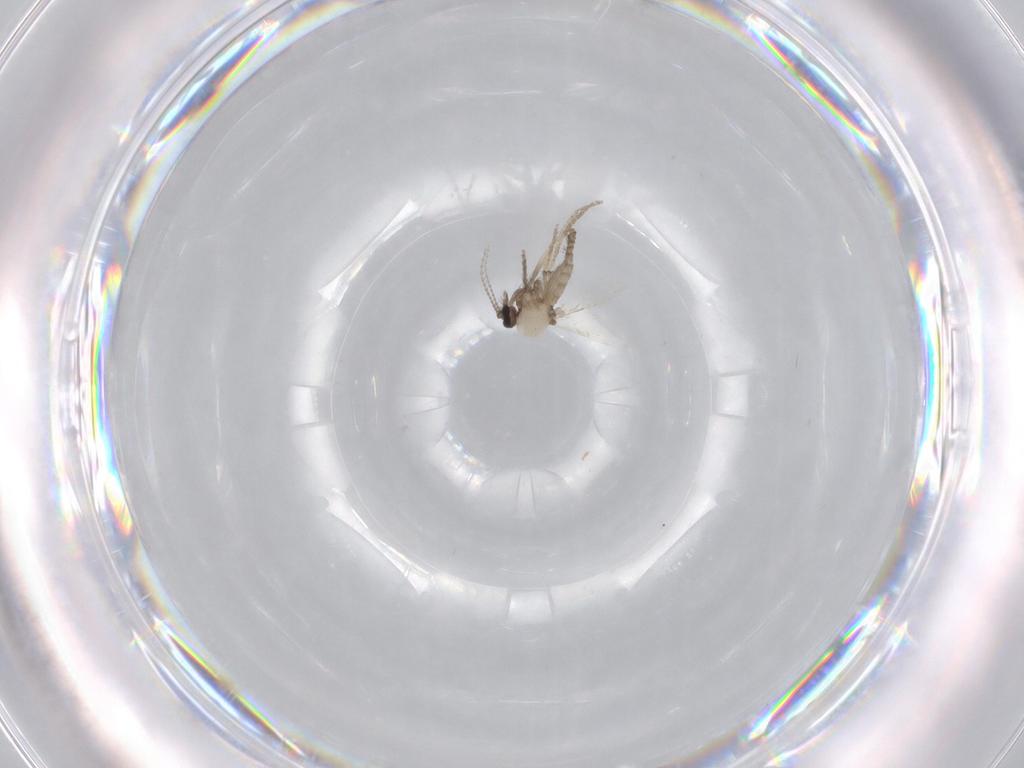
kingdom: Animalia
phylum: Arthropoda
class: Insecta
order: Diptera
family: Ceratopogonidae
